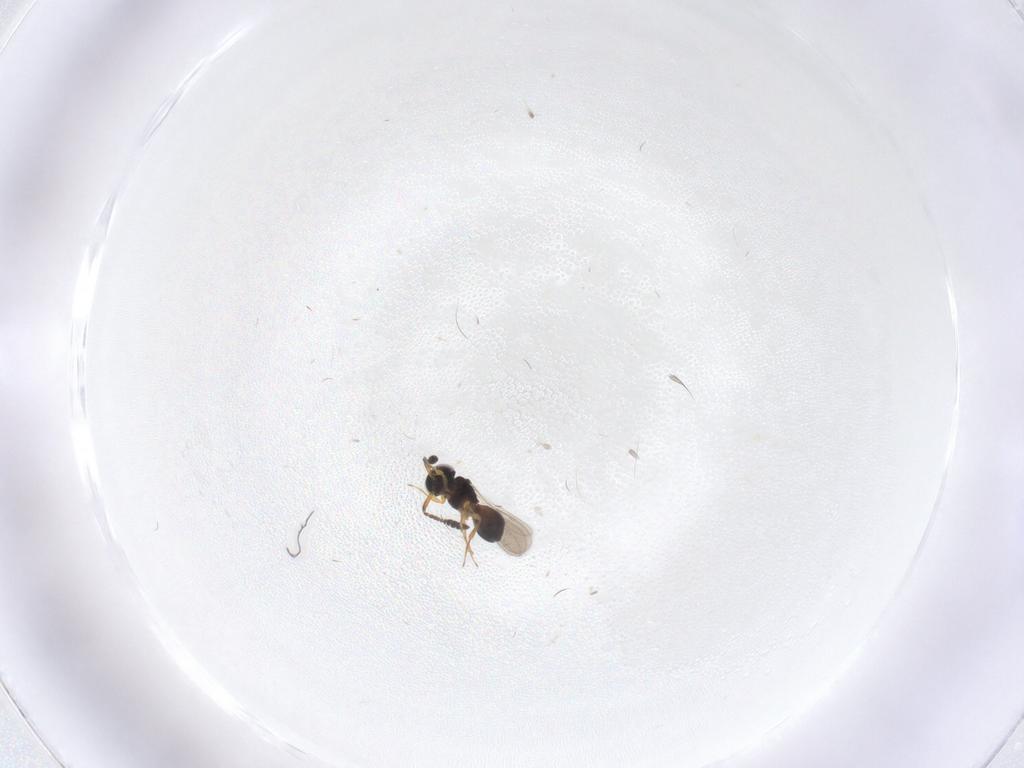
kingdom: Animalia
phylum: Arthropoda
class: Insecta
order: Hymenoptera
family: Scelionidae
